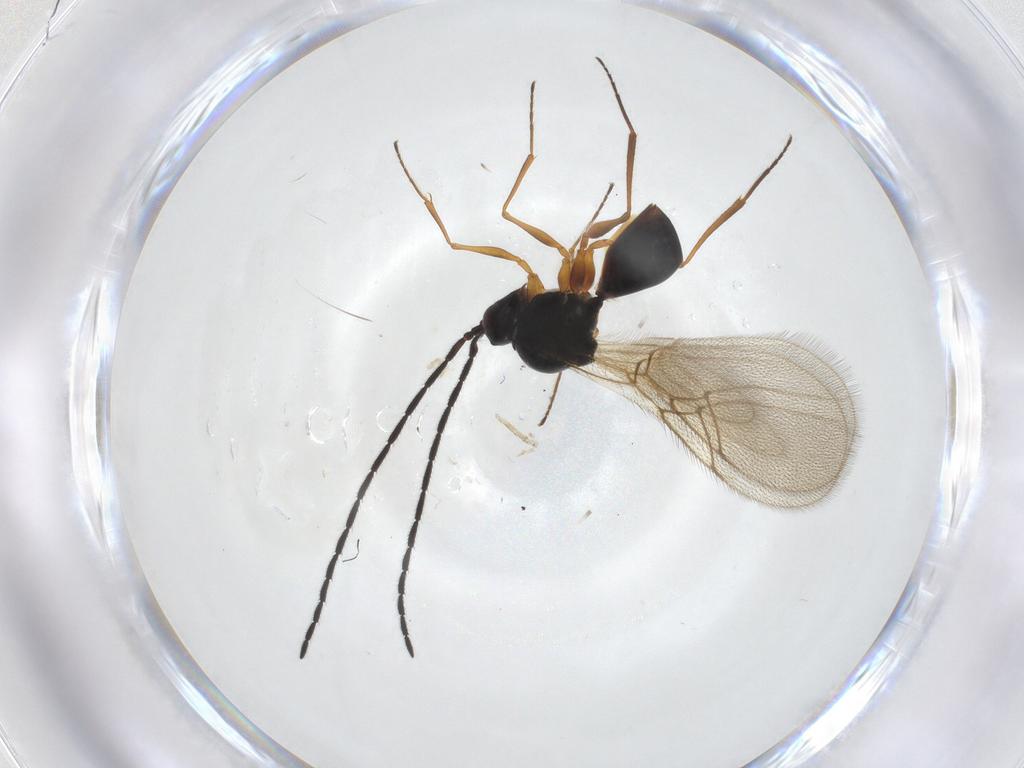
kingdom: Animalia
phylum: Arthropoda
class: Insecta
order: Hymenoptera
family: Figitidae
